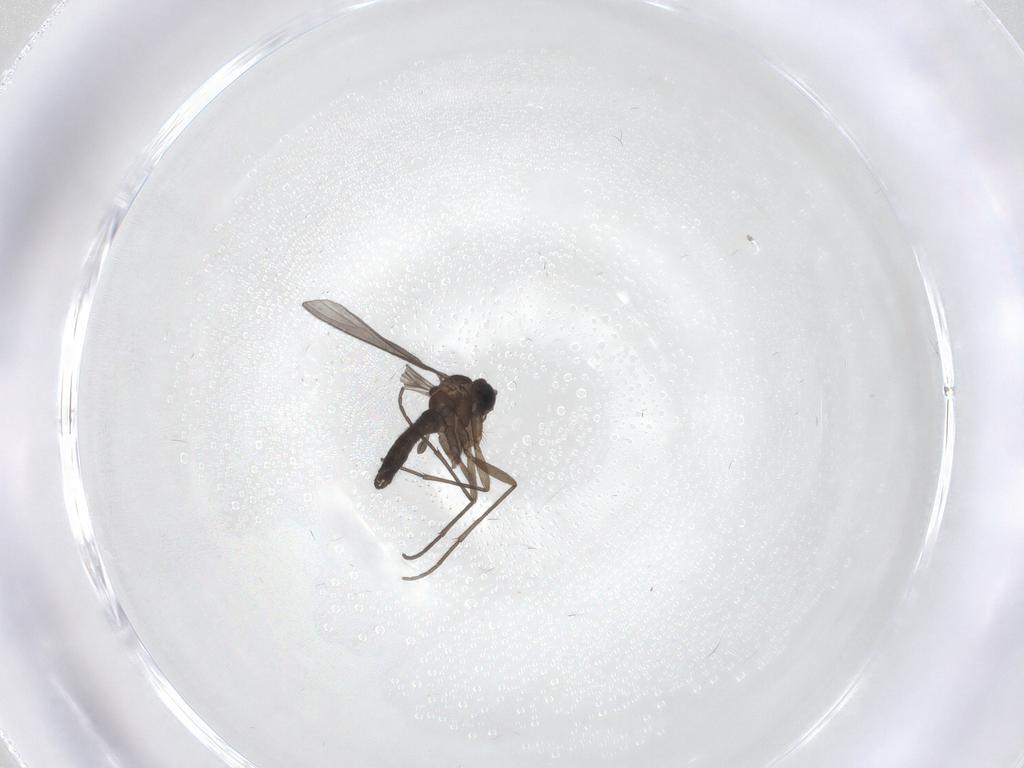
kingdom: Animalia
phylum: Arthropoda
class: Insecta
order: Diptera
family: Sciaridae
